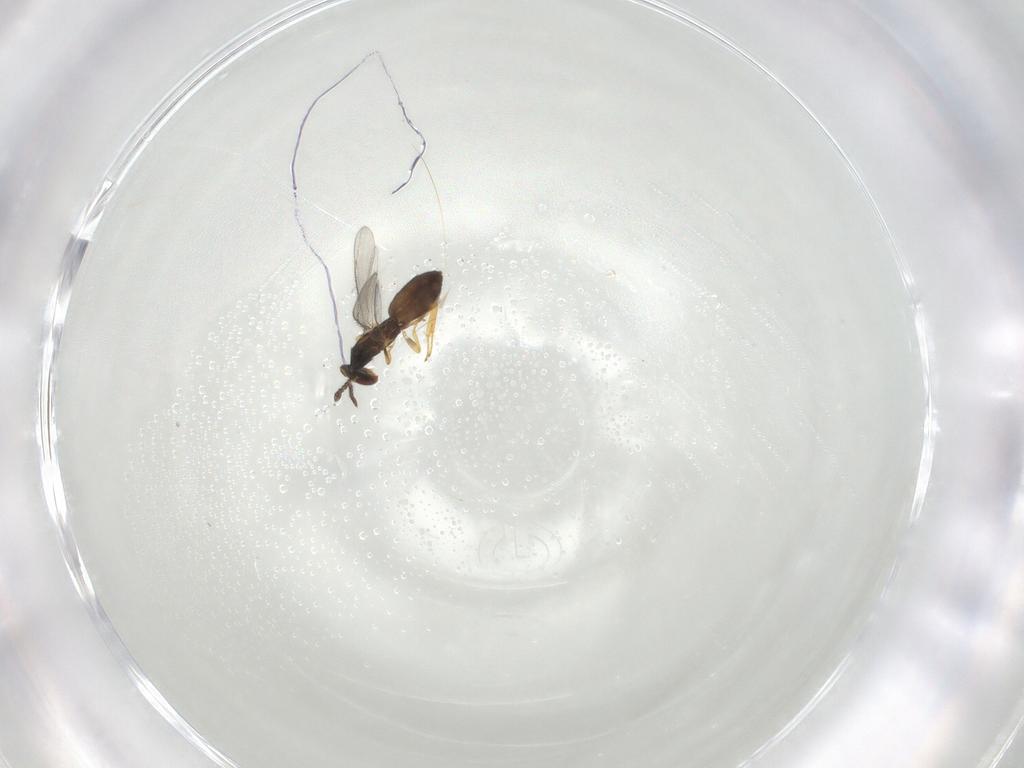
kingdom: Animalia
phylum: Arthropoda
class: Insecta
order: Hymenoptera
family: Eulophidae
